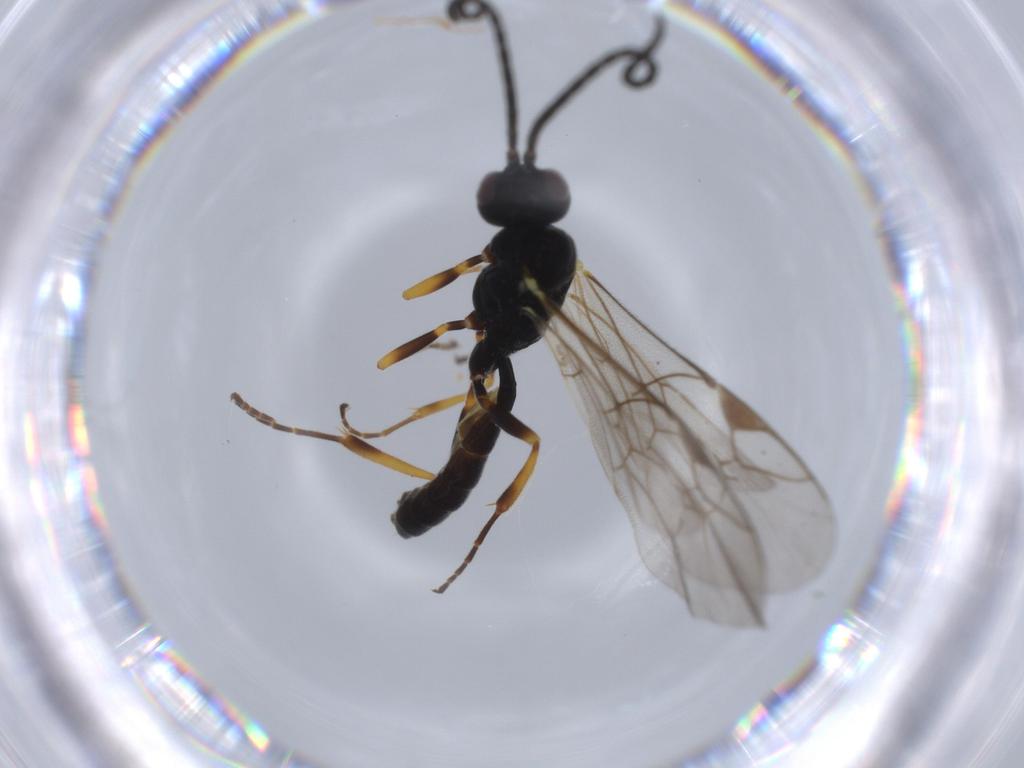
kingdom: Animalia
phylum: Arthropoda
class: Insecta
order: Hymenoptera
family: Ichneumonidae
